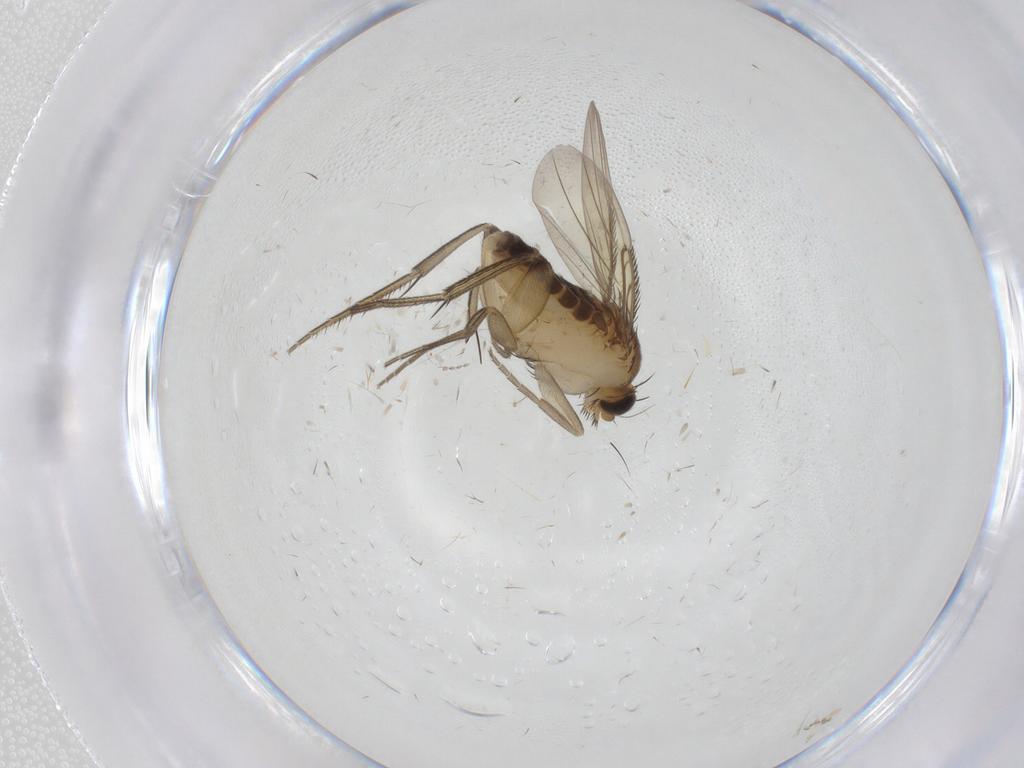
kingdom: Animalia
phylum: Arthropoda
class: Insecta
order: Diptera
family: Phoridae
